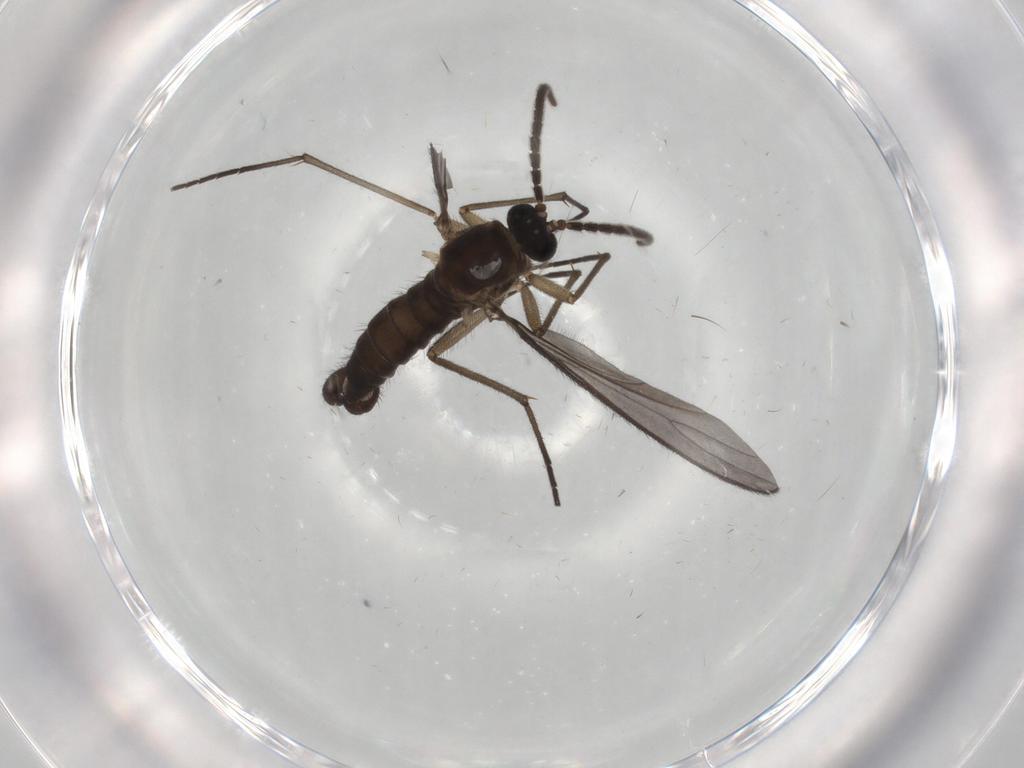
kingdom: Animalia
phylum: Arthropoda
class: Insecta
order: Diptera
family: Sciaridae
